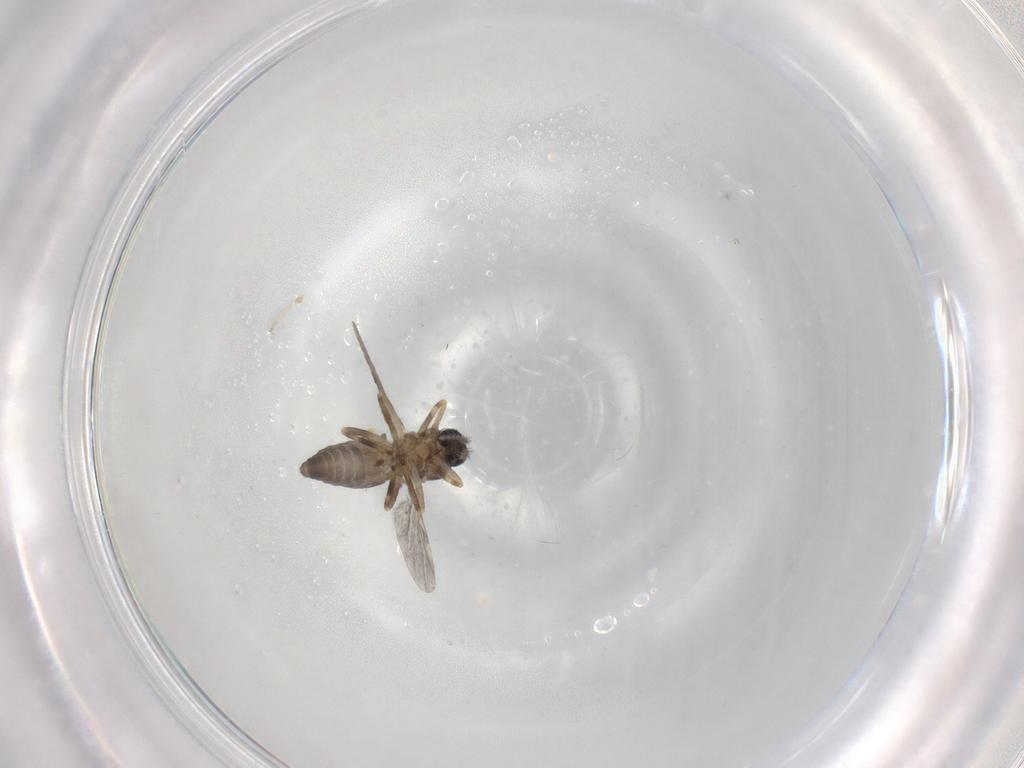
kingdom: Animalia
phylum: Arthropoda
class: Insecta
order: Diptera
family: Ceratopogonidae
